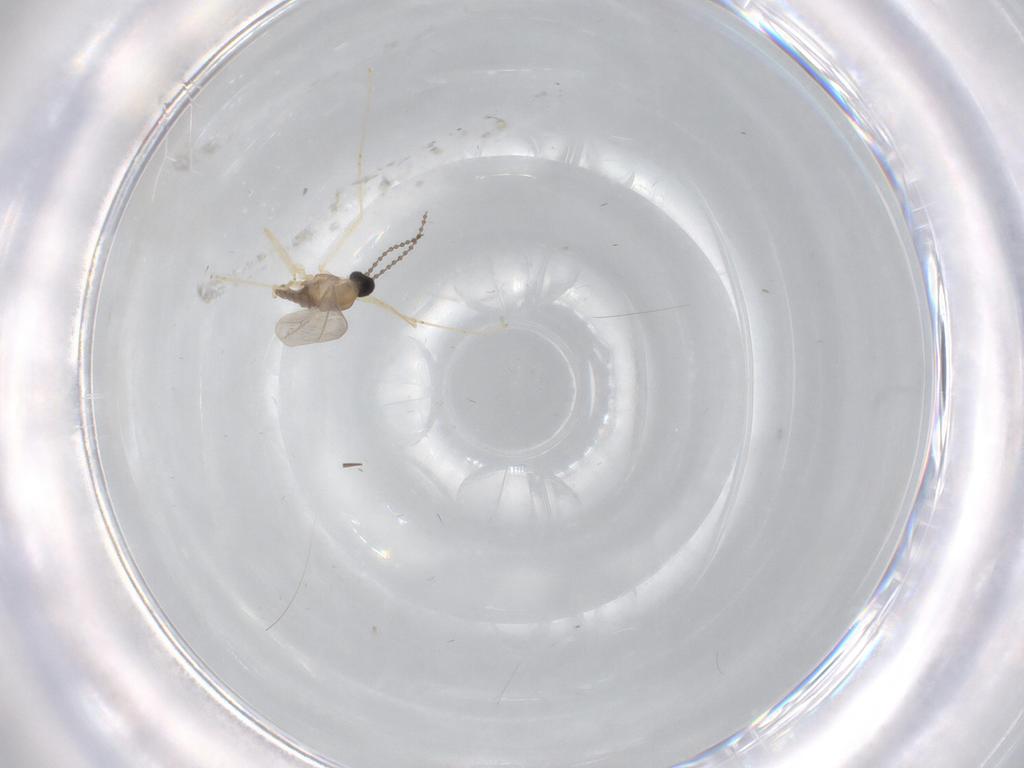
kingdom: Animalia
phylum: Arthropoda
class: Insecta
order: Diptera
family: Cecidomyiidae
